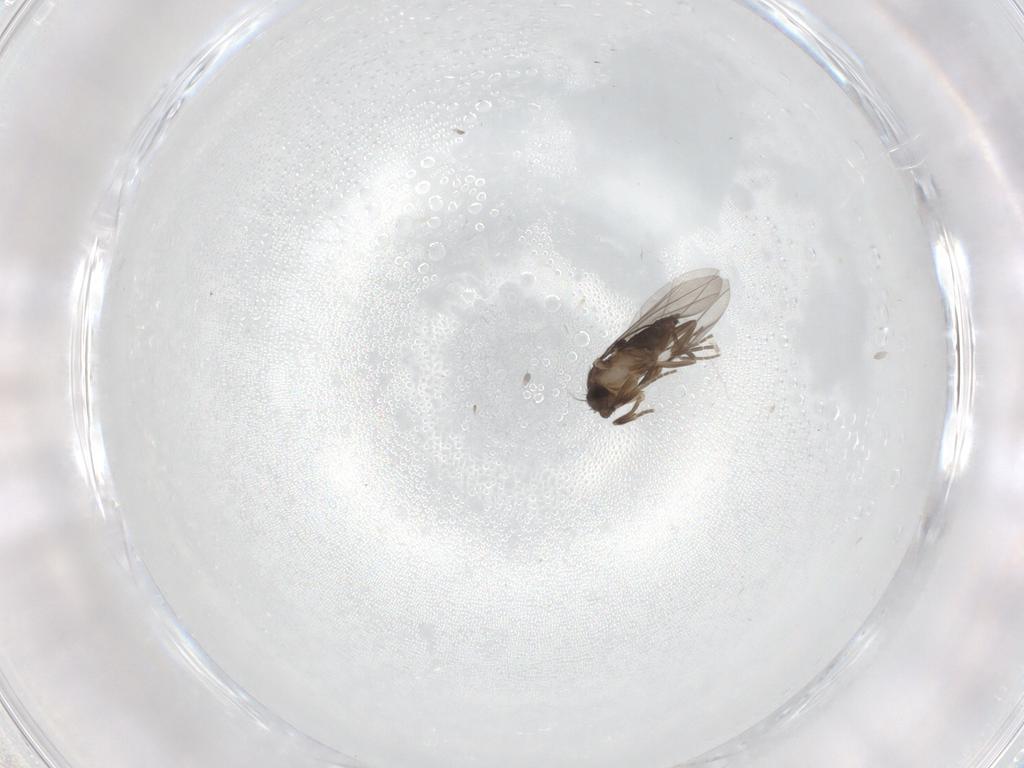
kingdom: Animalia
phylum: Arthropoda
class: Insecta
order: Diptera
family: Phoridae
